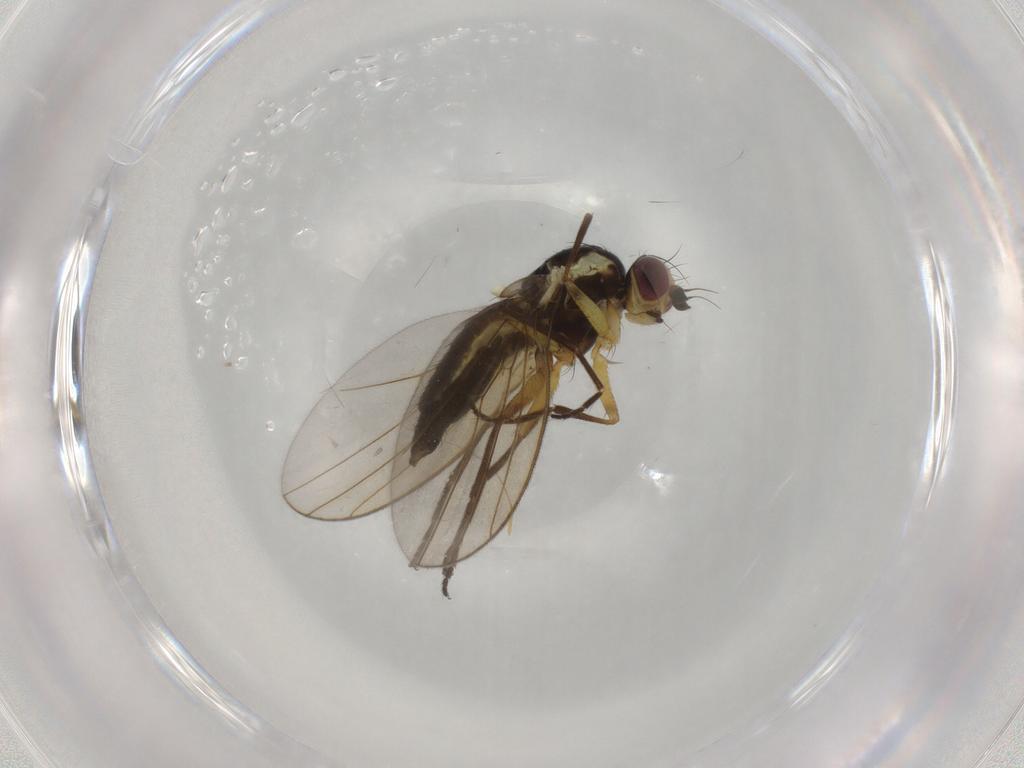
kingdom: Animalia
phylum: Arthropoda
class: Insecta
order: Diptera
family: Agromyzidae
